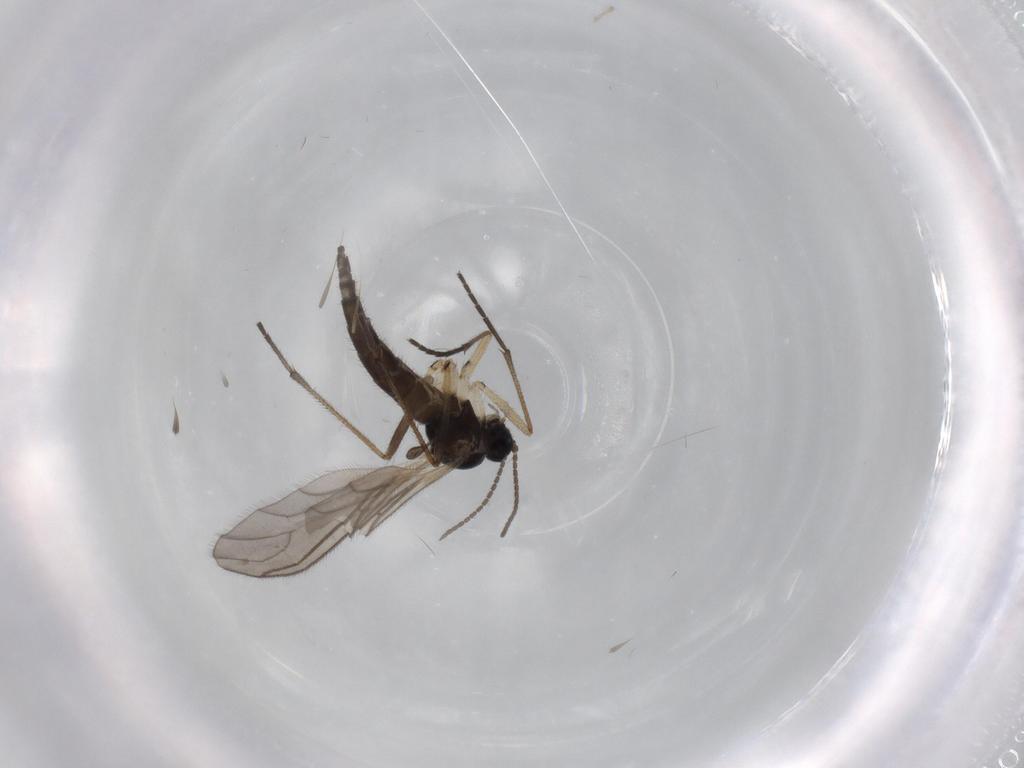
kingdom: Animalia
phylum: Arthropoda
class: Insecta
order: Diptera
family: Sciaridae
